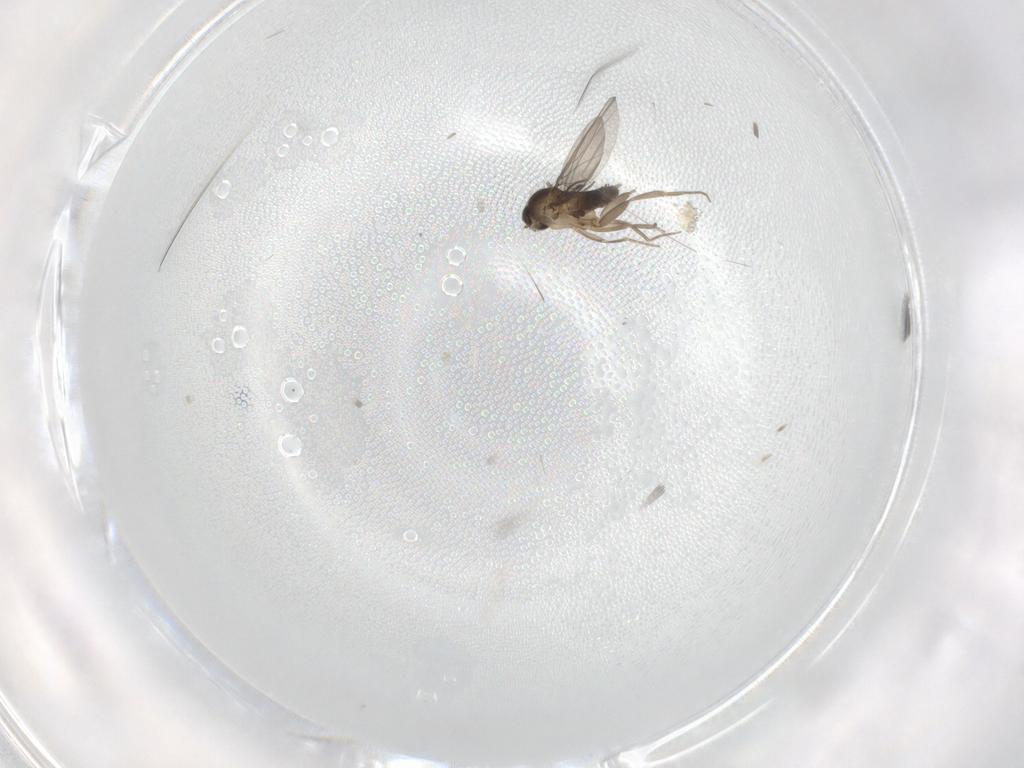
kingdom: Animalia
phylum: Arthropoda
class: Insecta
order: Diptera
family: Phoridae
